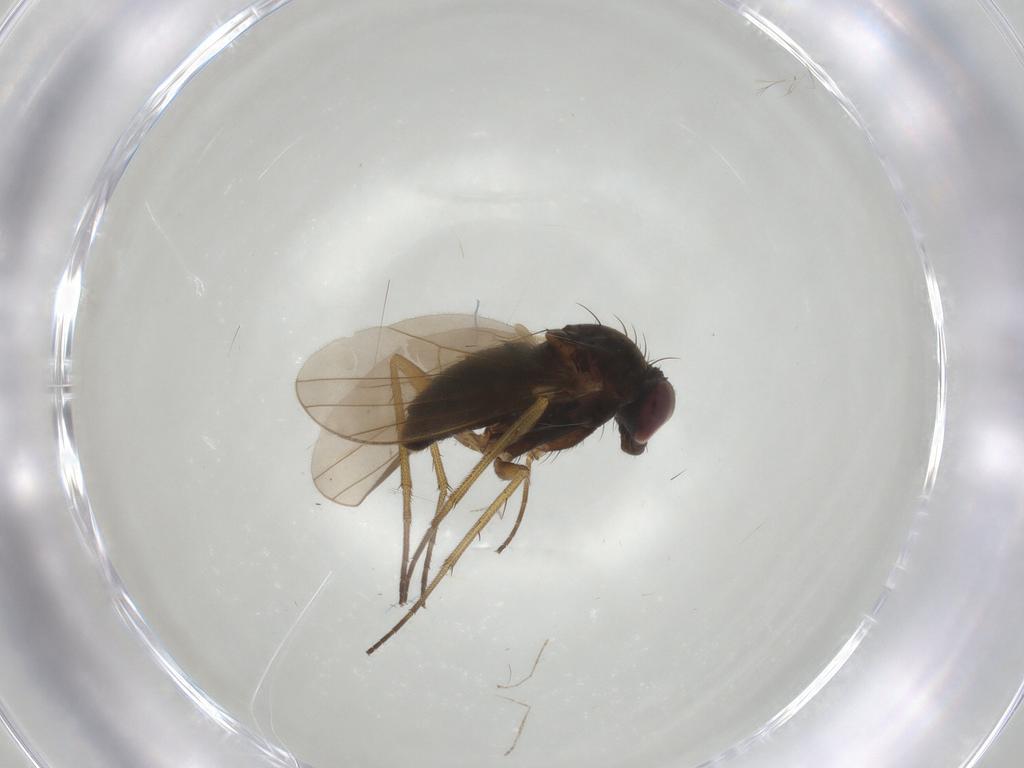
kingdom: Animalia
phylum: Arthropoda
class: Insecta
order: Diptera
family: Dolichopodidae
